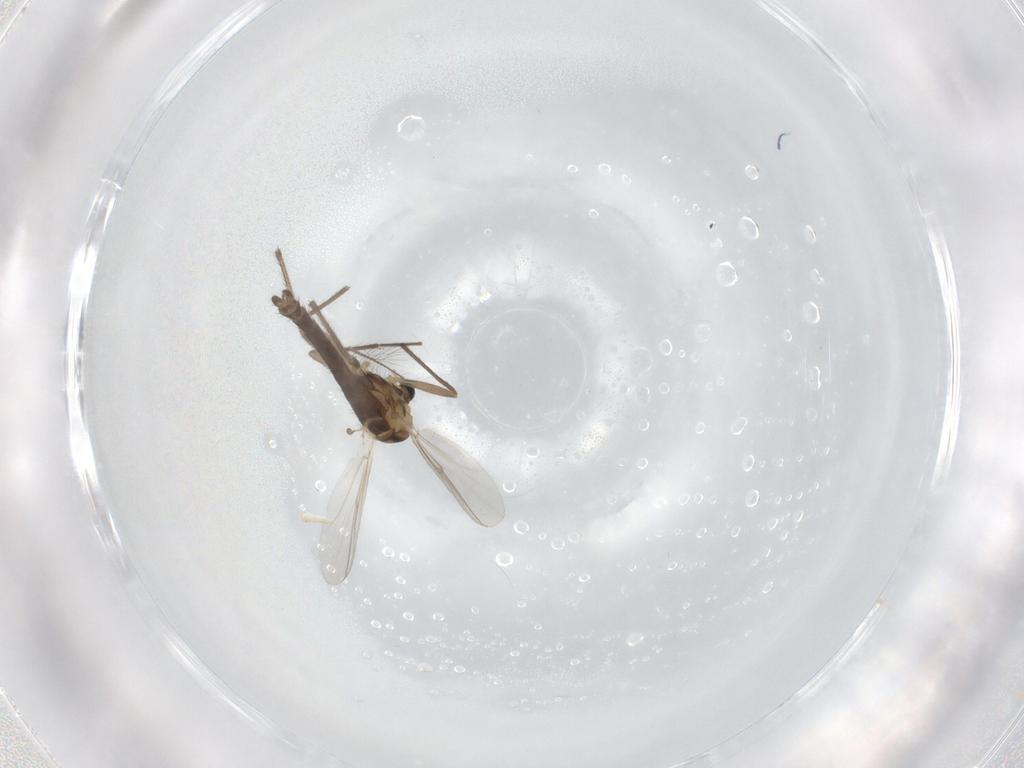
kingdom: Animalia
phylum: Arthropoda
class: Insecta
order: Diptera
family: Chironomidae
